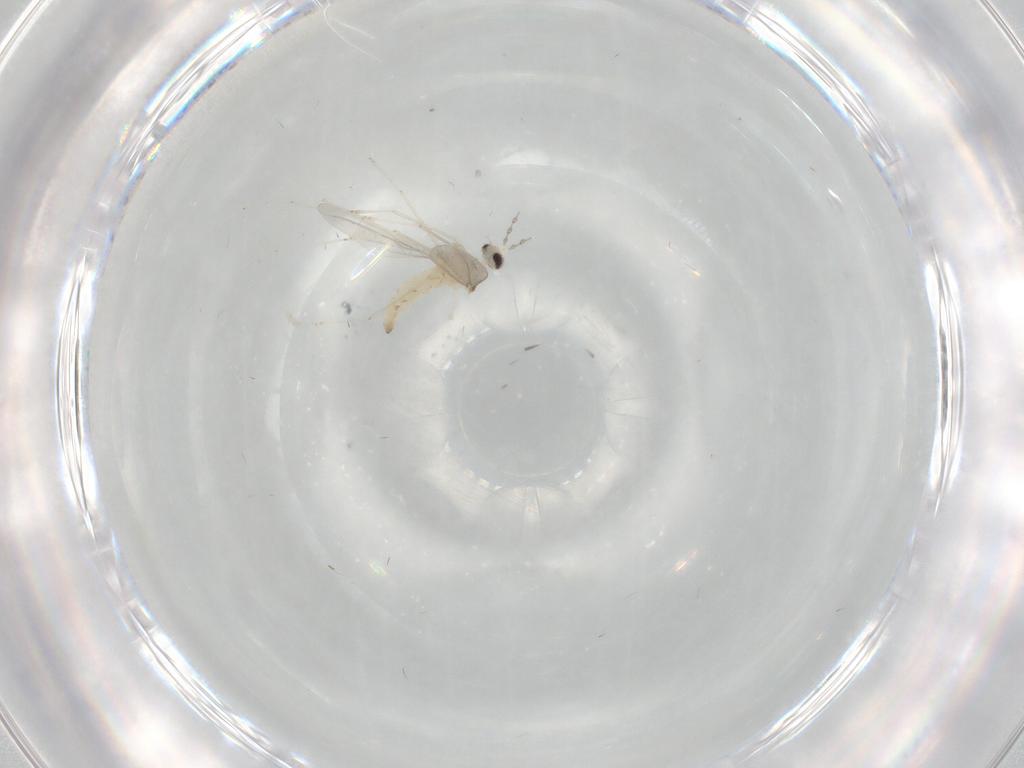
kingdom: Animalia
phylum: Arthropoda
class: Insecta
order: Diptera
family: Cecidomyiidae
